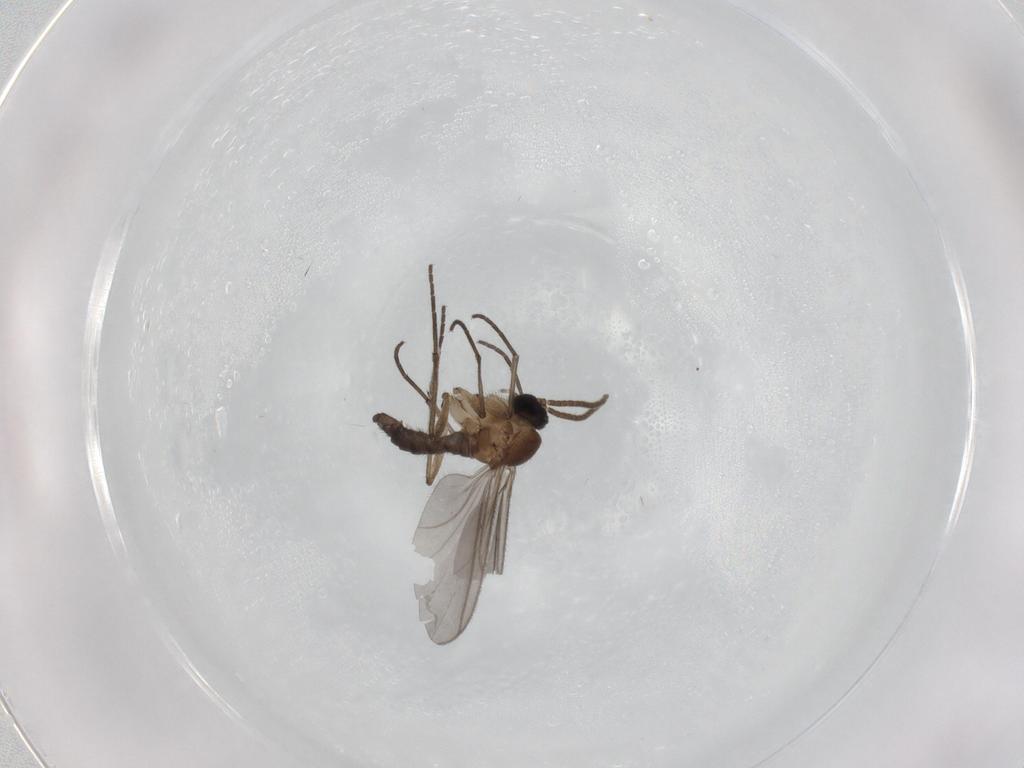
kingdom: Animalia
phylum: Arthropoda
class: Insecta
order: Diptera
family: Phoridae
